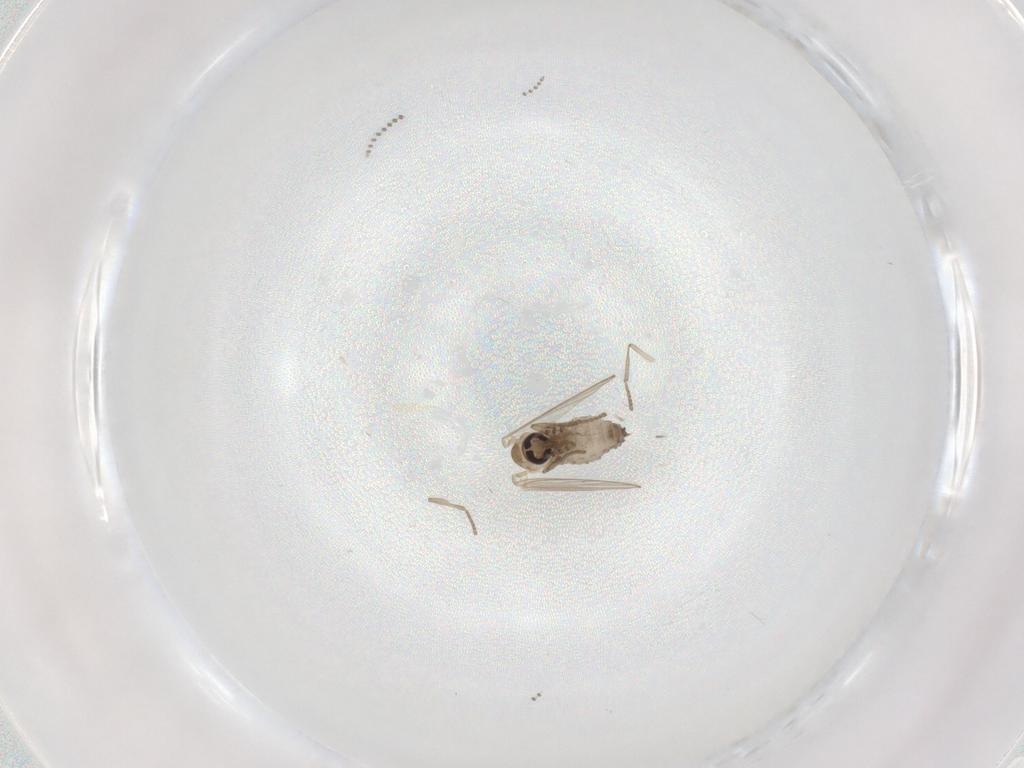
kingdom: Animalia
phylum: Arthropoda
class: Insecta
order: Diptera
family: Psychodidae
